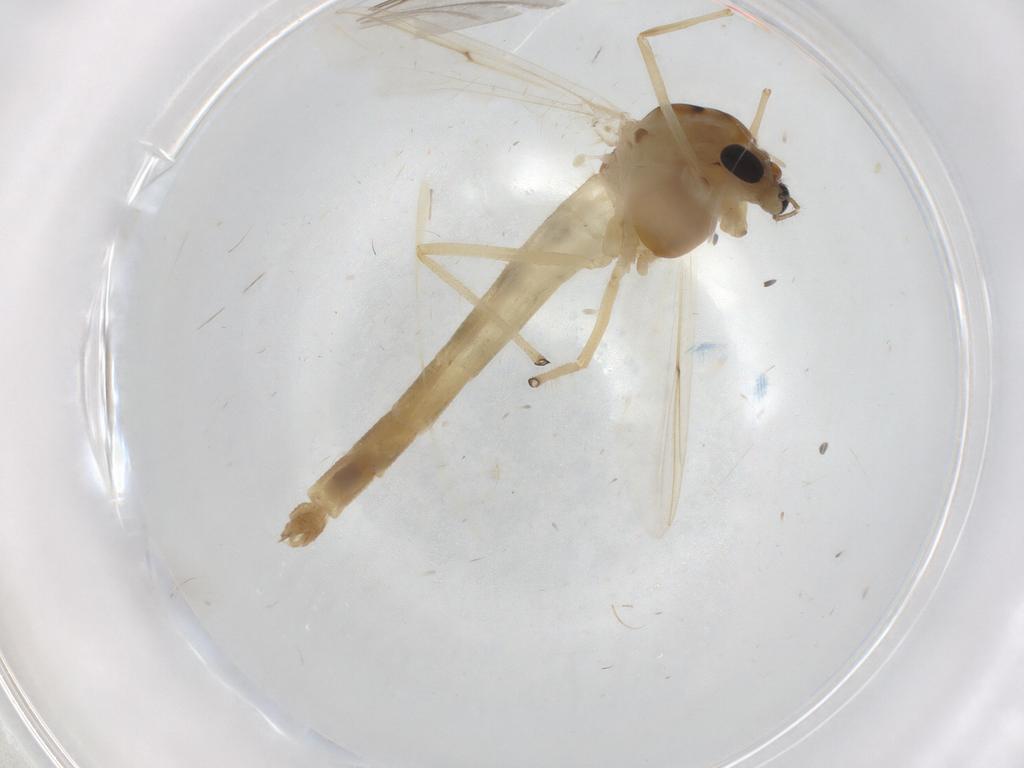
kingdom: Animalia
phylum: Arthropoda
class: Insecta
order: Diptera
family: Chironomidae
